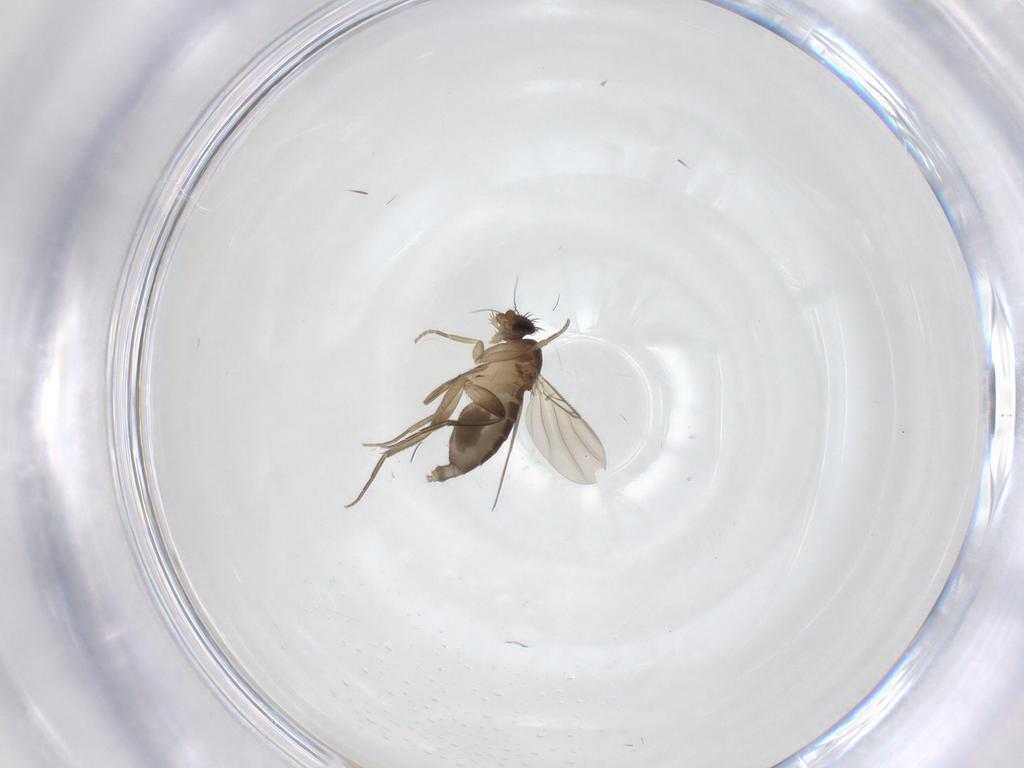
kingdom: Animalia
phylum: Arthropoda
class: Insecta
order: Diptera
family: Phoridae
